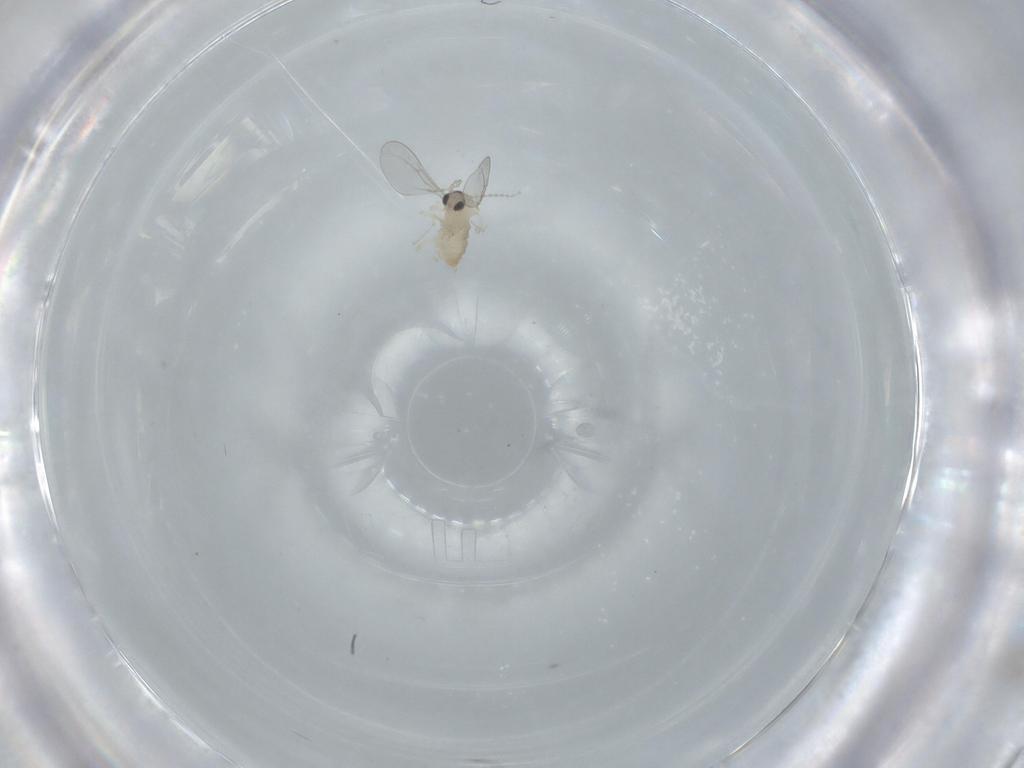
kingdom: Animalia
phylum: Arthropoda
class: Insecta
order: Diptera
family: Cecidomyiidae
